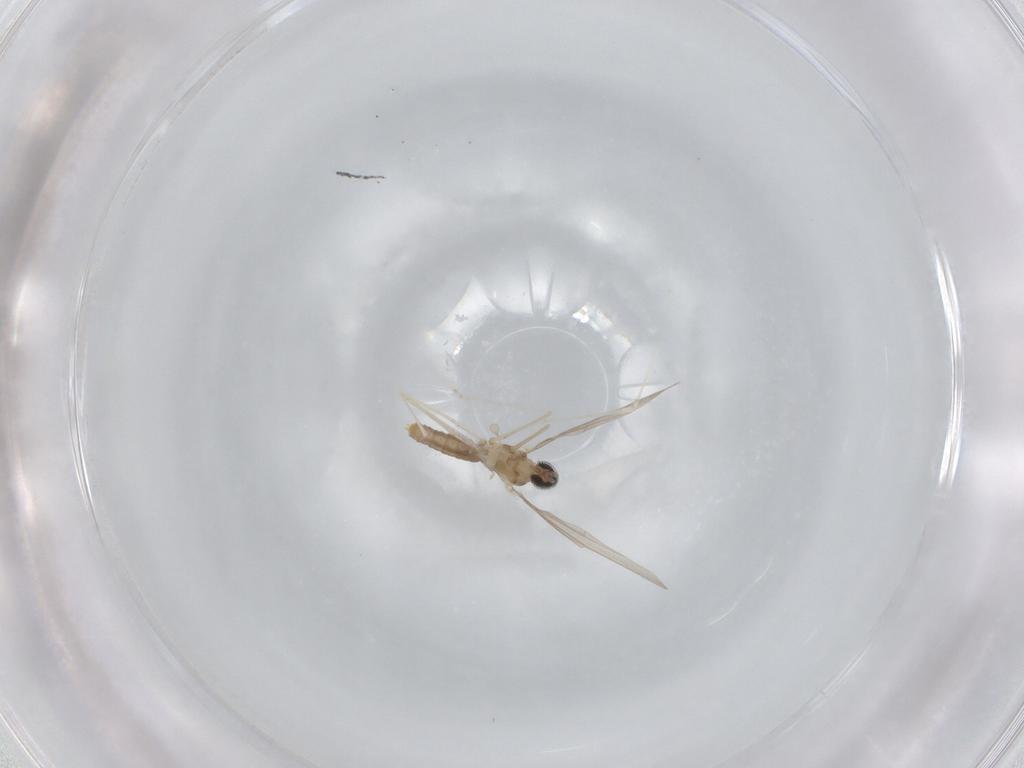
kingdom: Animalia
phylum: Arthropoda
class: Insecta
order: Diptera
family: Cecidomyiidae
